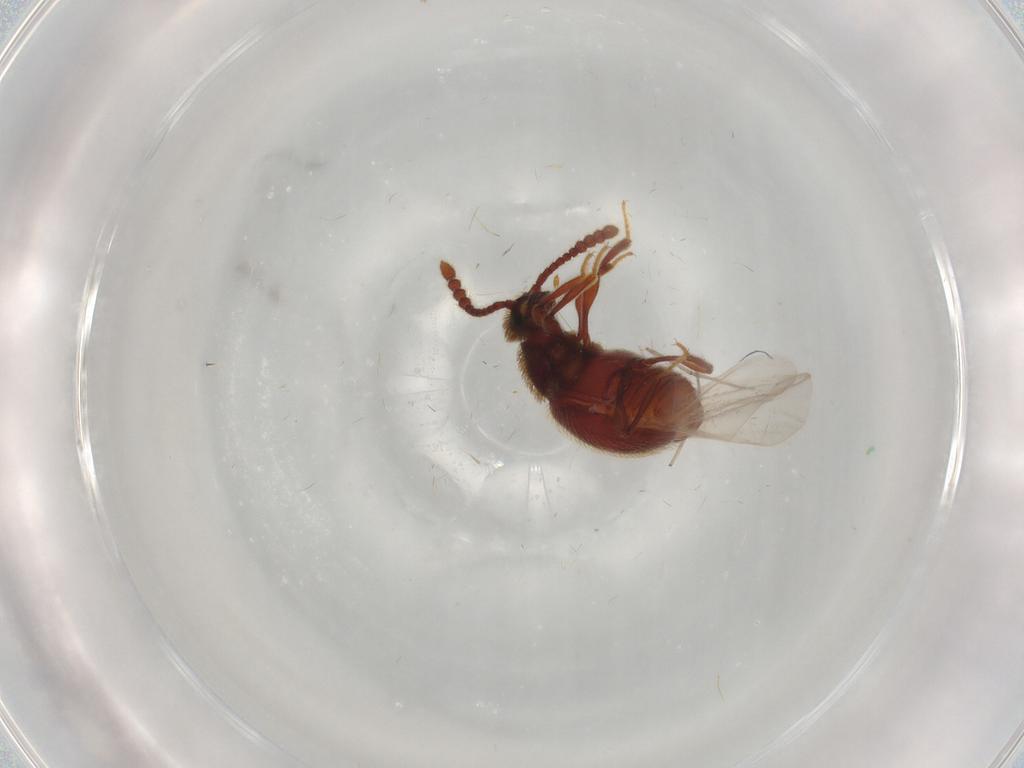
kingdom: Animalia
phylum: Arthropoda
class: Insecta
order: Coleoptera
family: Staphylinidae
